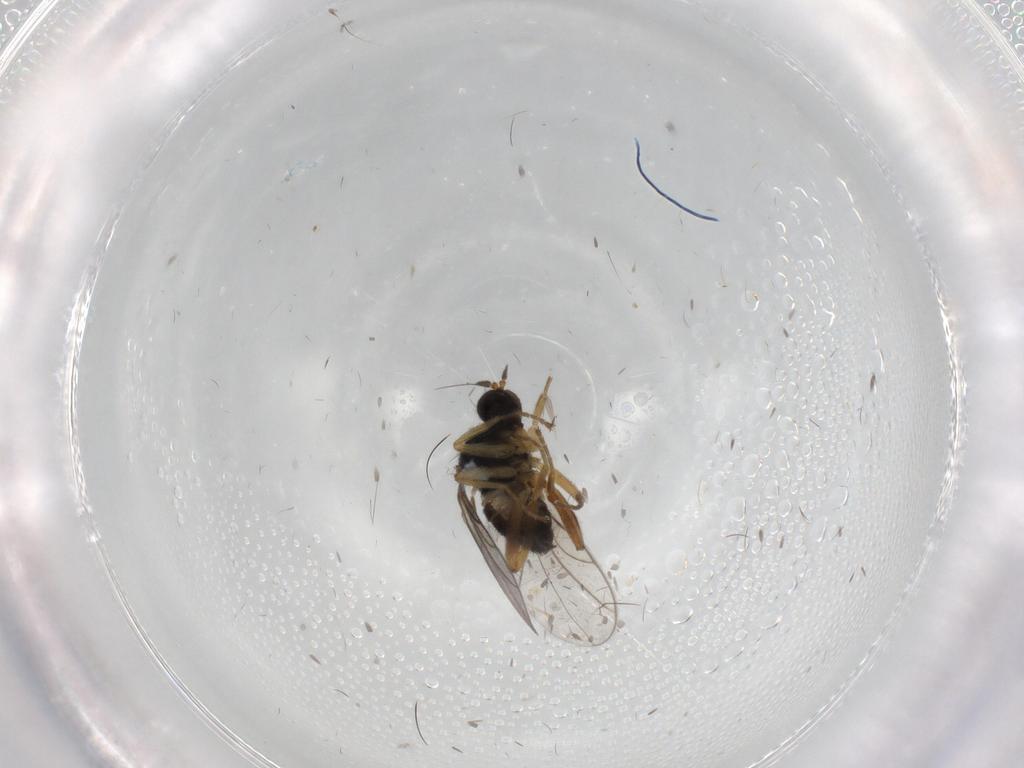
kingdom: Animalia
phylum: Arthropoda
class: Insecta
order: Diptera
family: Hybotidae
